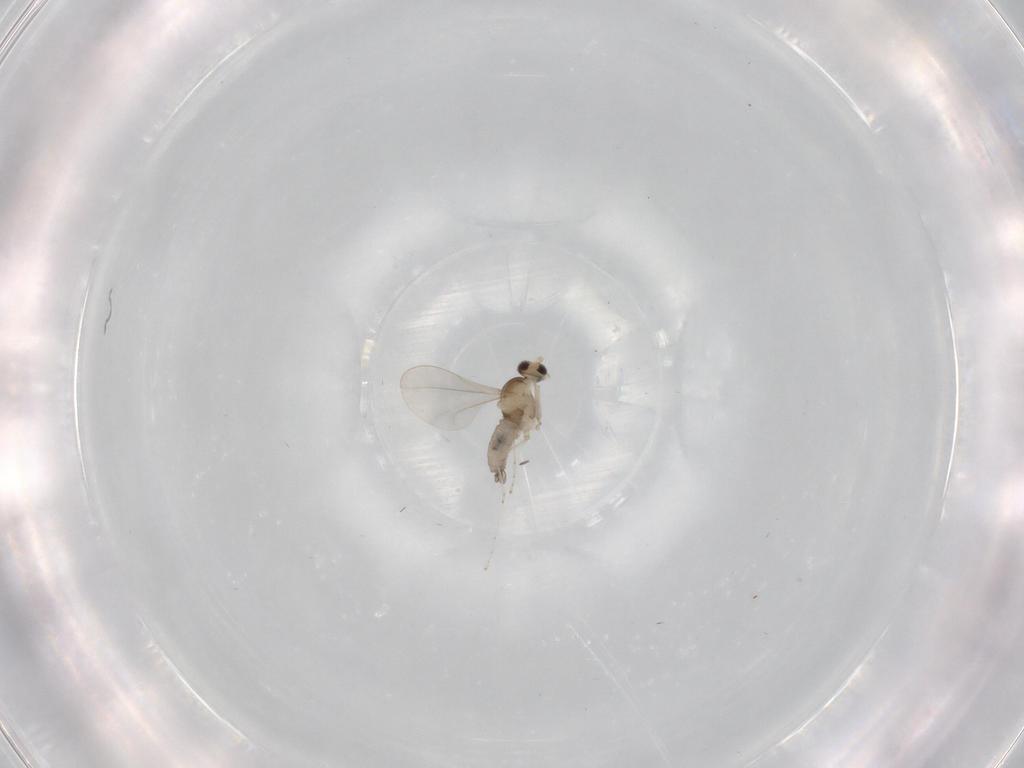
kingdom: Animalia
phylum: Arthropoda
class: Insecta
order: Diptera
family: Cecidomyiidae
